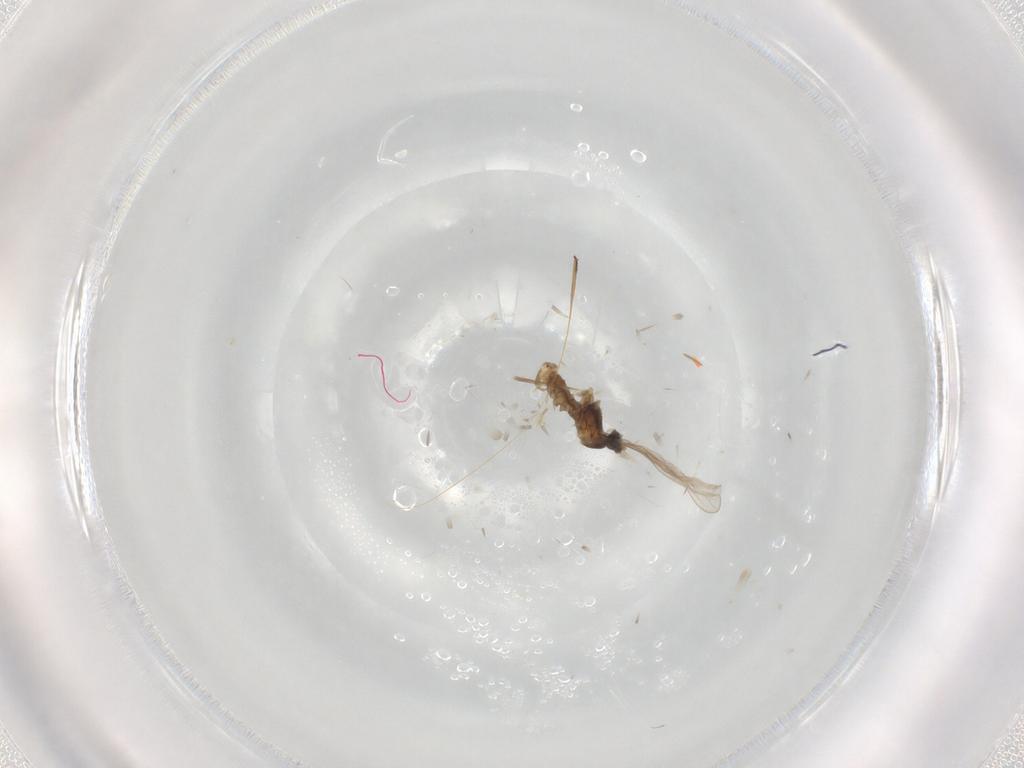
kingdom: Animalia
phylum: Arthropoda
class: Insecta
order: Diptera
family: Cecidomyiidae
